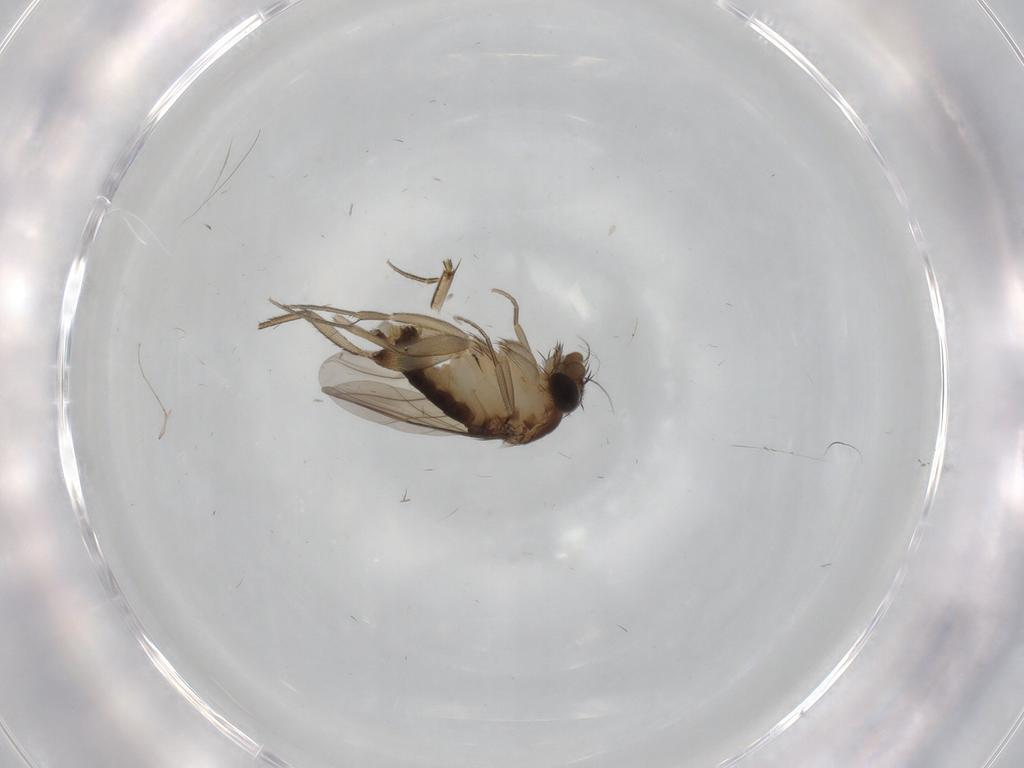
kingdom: Animalia
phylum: Arthropoda
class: Insecta
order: Diptera
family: Phoridae
